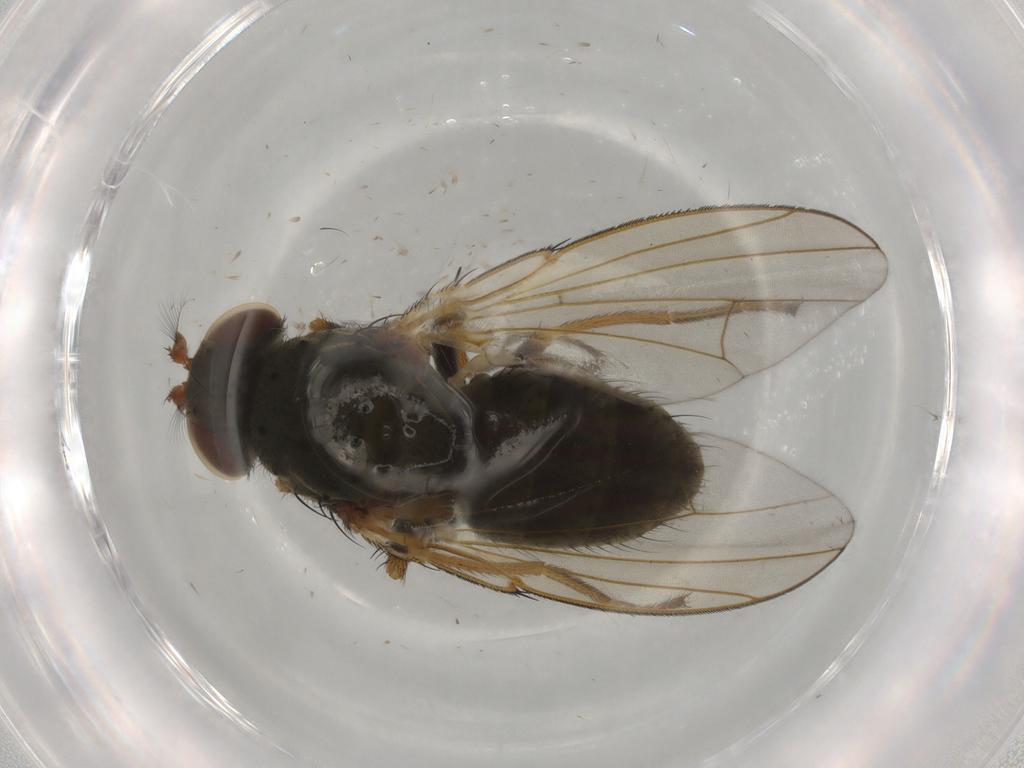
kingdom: Animalia
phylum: Arthropoda
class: Insecta
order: Diptera
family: Ephydridae
